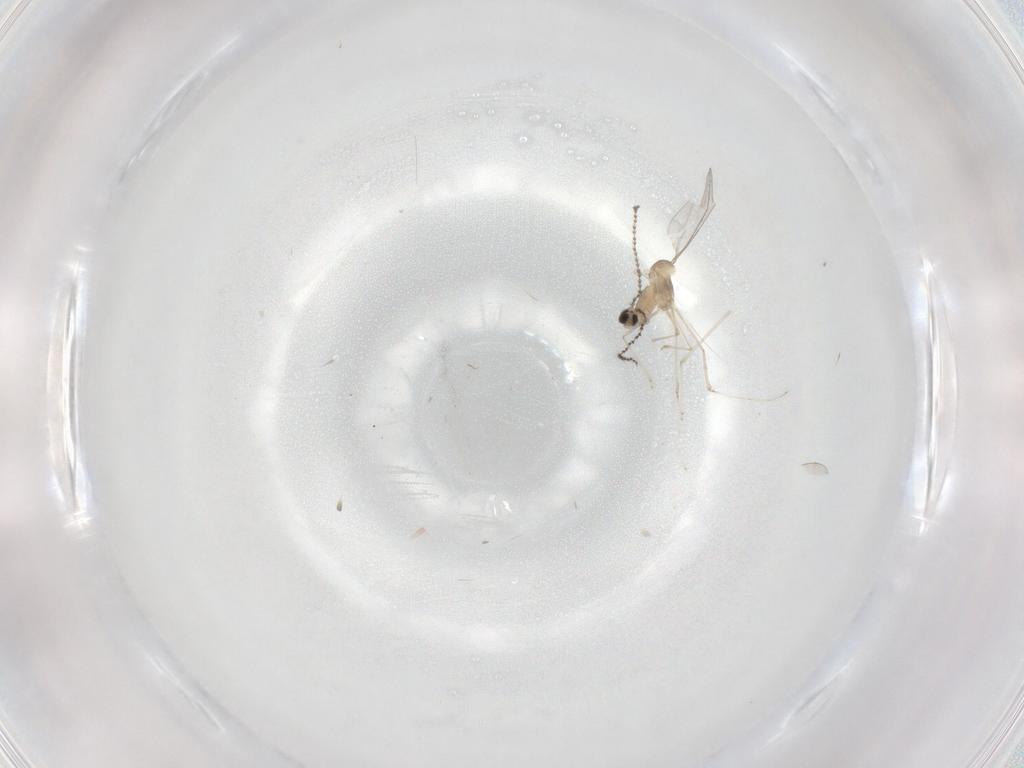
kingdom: Animalia
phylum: Arthropoda
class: Insecta
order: Diptera
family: Cecidomyiidae
